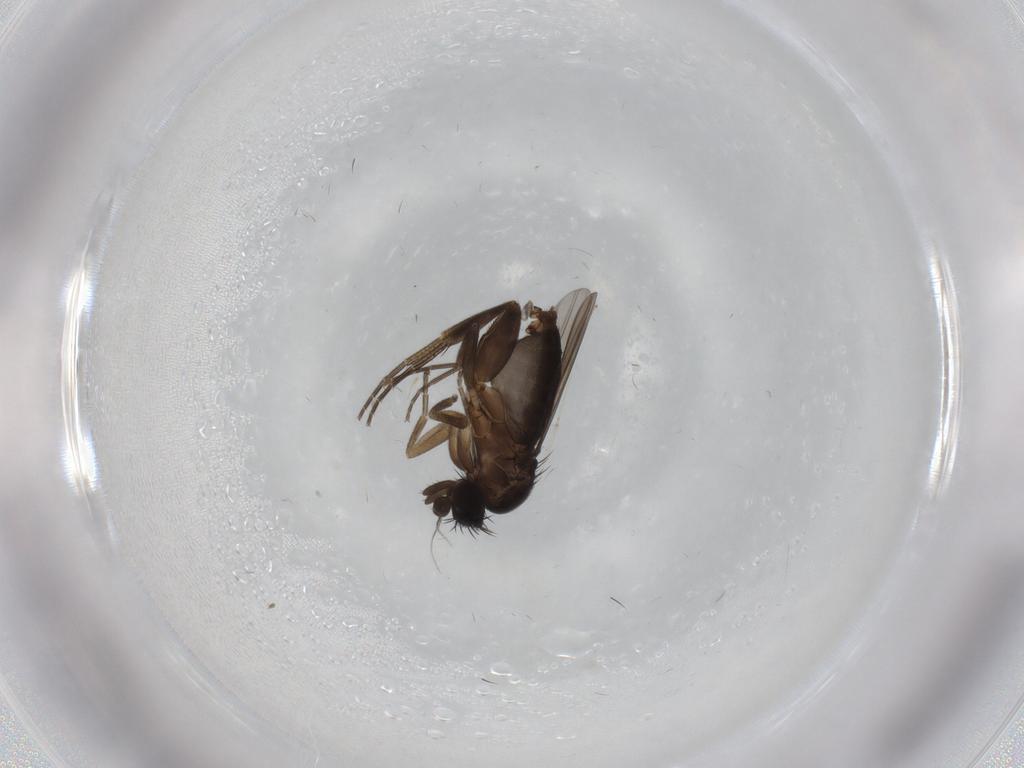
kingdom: Animalia
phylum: Arthropoda
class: Insecta
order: Diptera
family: Phoridae
